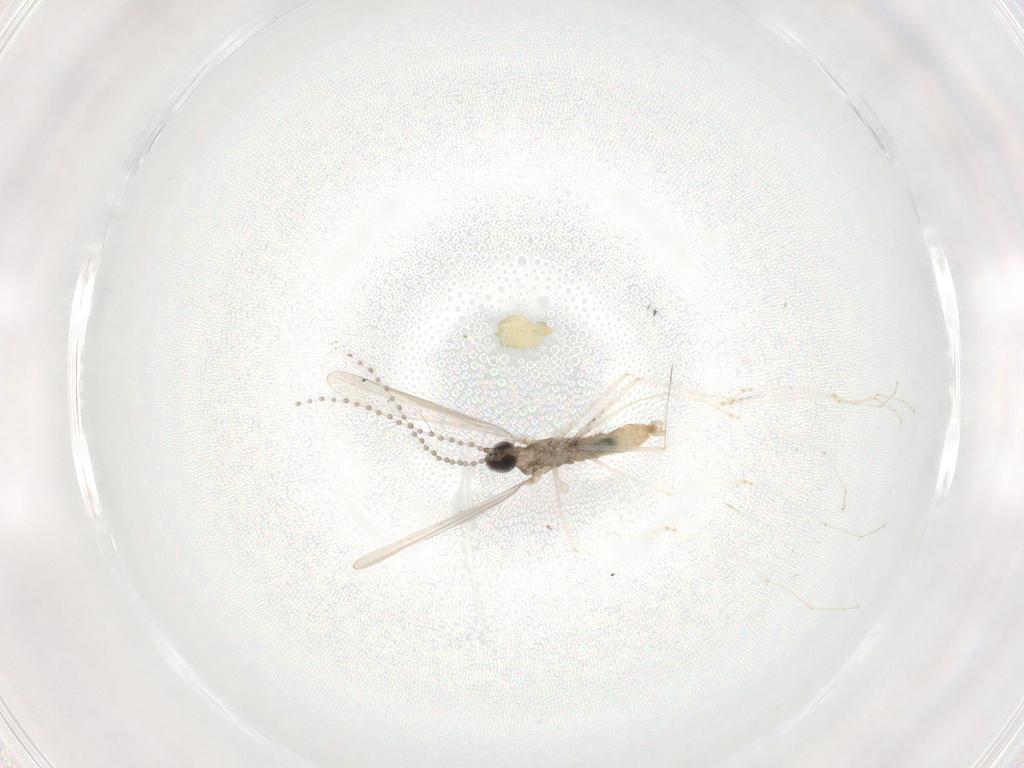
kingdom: Animalia
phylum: Arthropoda
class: Insecta
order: Diptera
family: Cecidomyiidae
